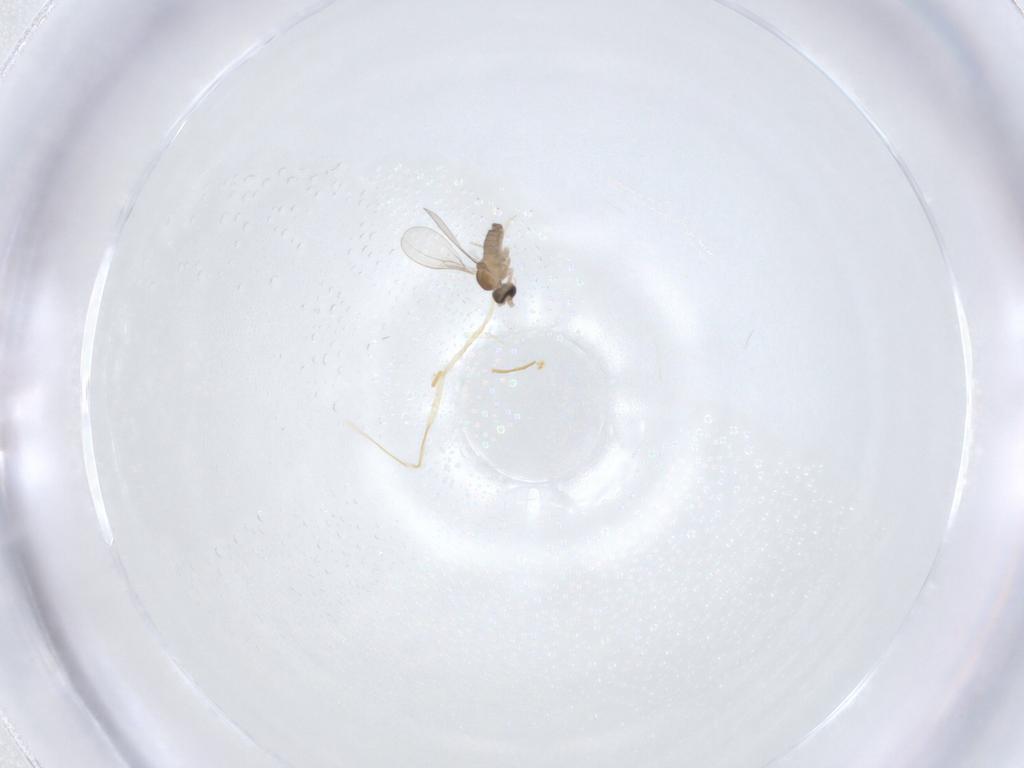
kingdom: Animalia
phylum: Arthropoda
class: Insecta
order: Diptera
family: Cecidomyiidae
